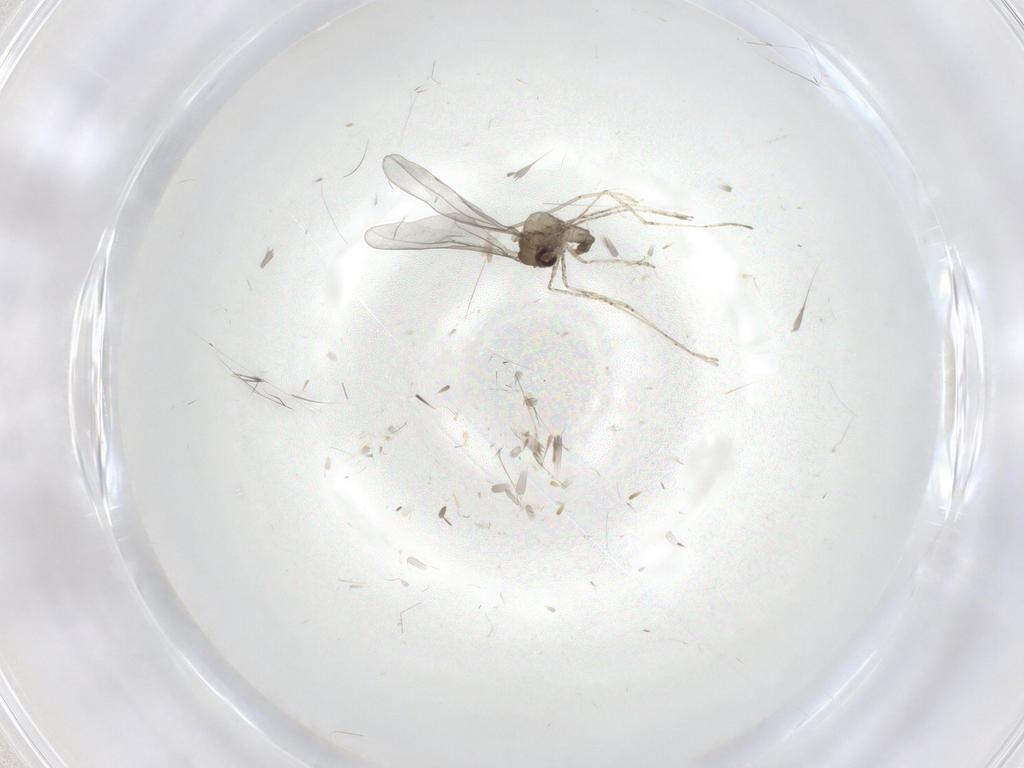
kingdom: Animalia
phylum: Arthropoda
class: Insecta
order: Diptera
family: Cecidomyiidae
